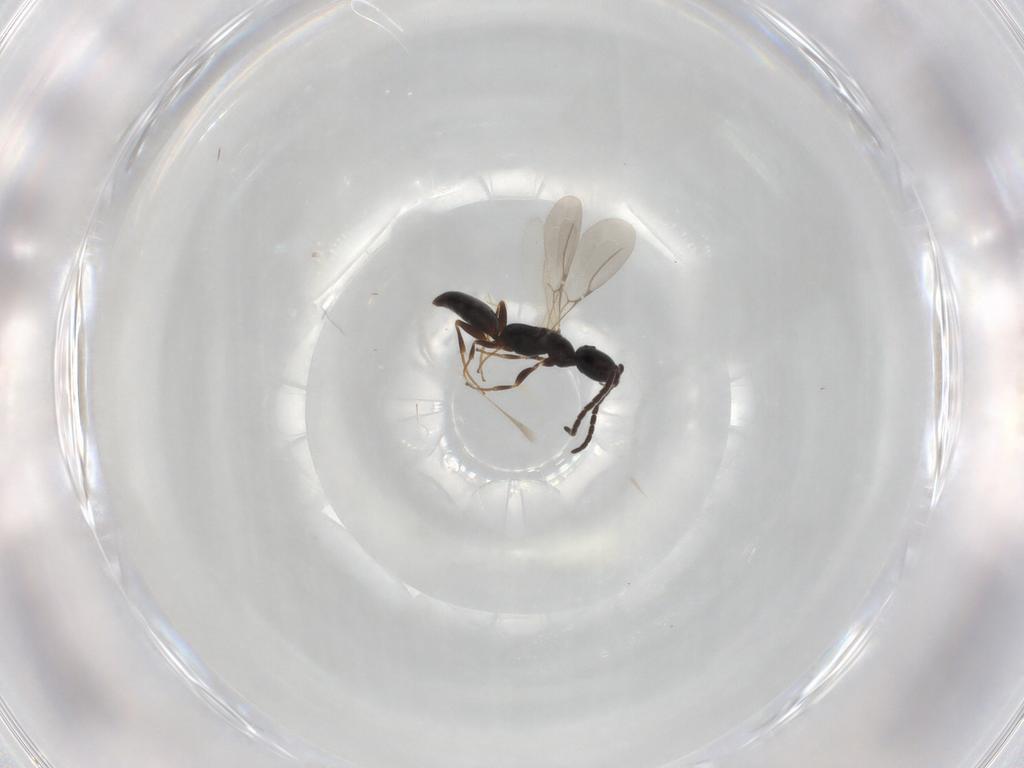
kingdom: Animalia
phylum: Arthropoda
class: Insecta
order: Hymenoptera
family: Bethylidae
